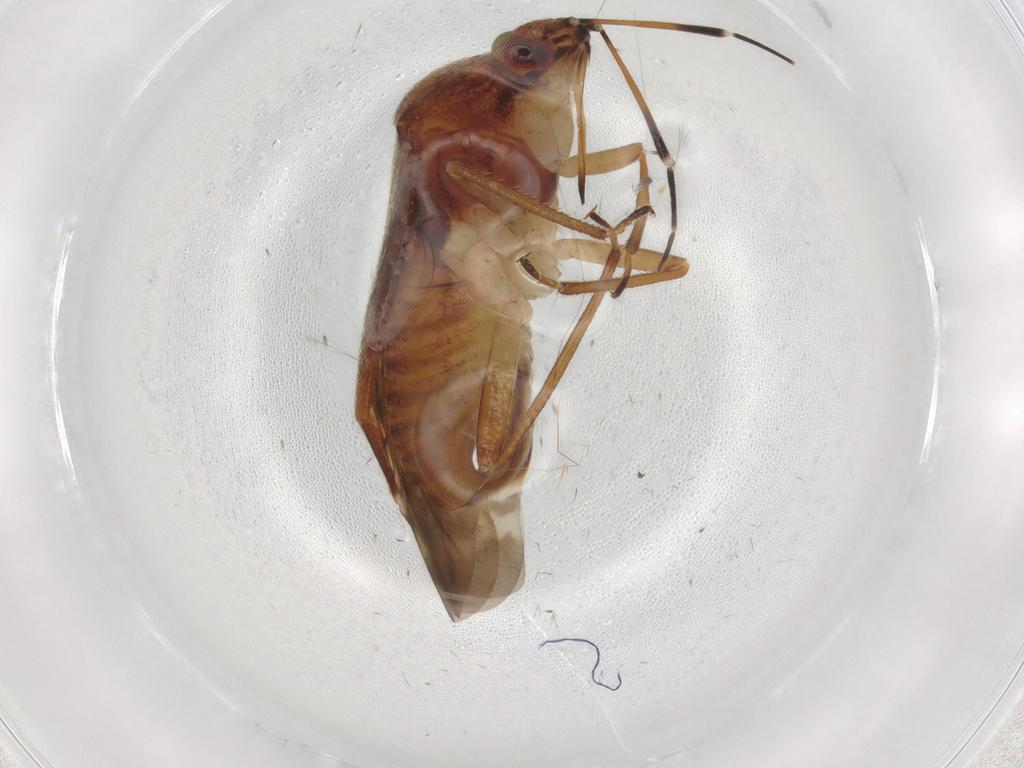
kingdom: Animalia
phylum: Arthropoda
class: Insecta
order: Hemiptera
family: Miridae
